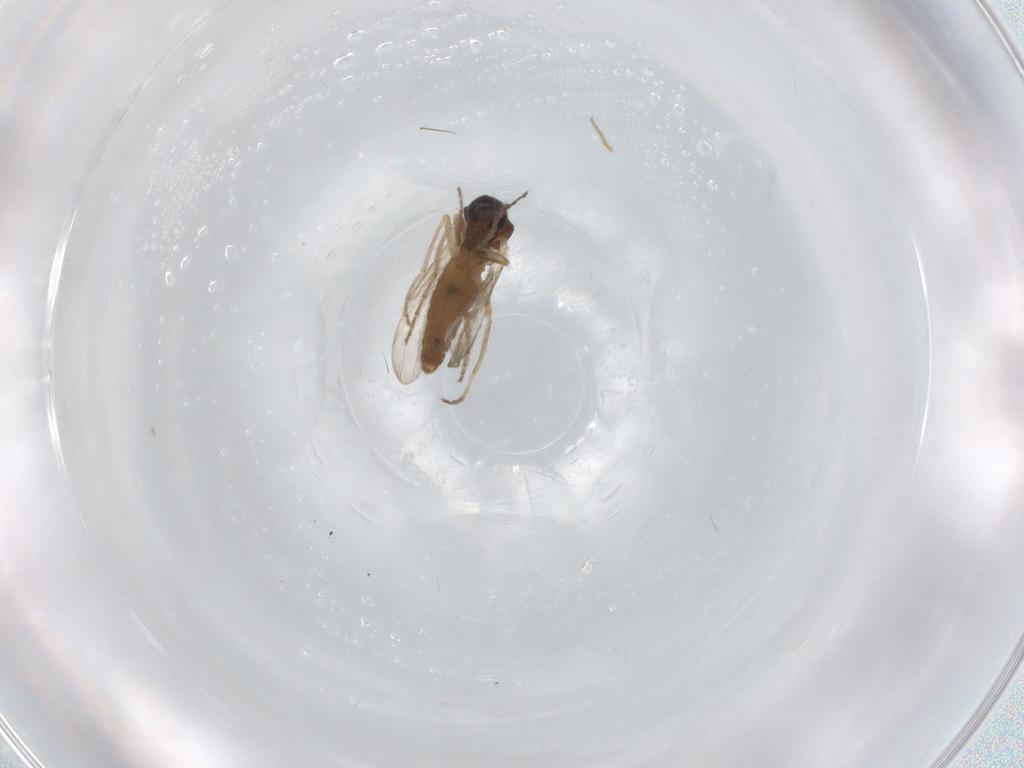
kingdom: Animalia
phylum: Arthropoda
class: Insecta
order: Diptera
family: Ceratopogonidae
